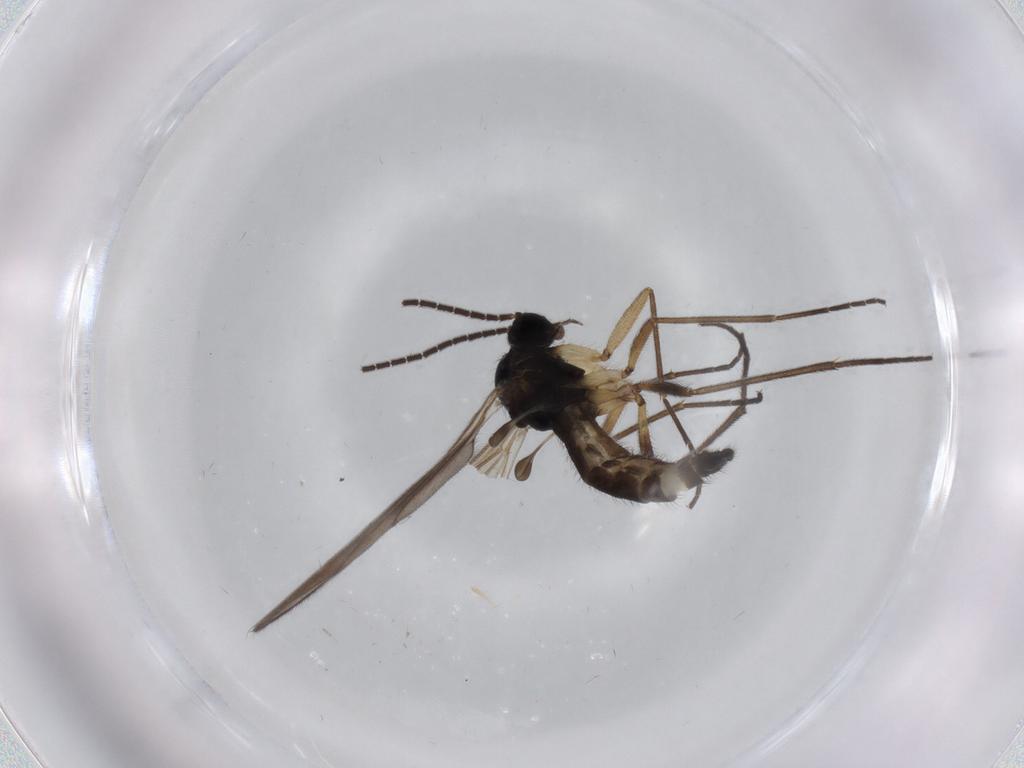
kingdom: Animalia
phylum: Arthropoda
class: Insecta
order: Diptera
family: Sciaridae
